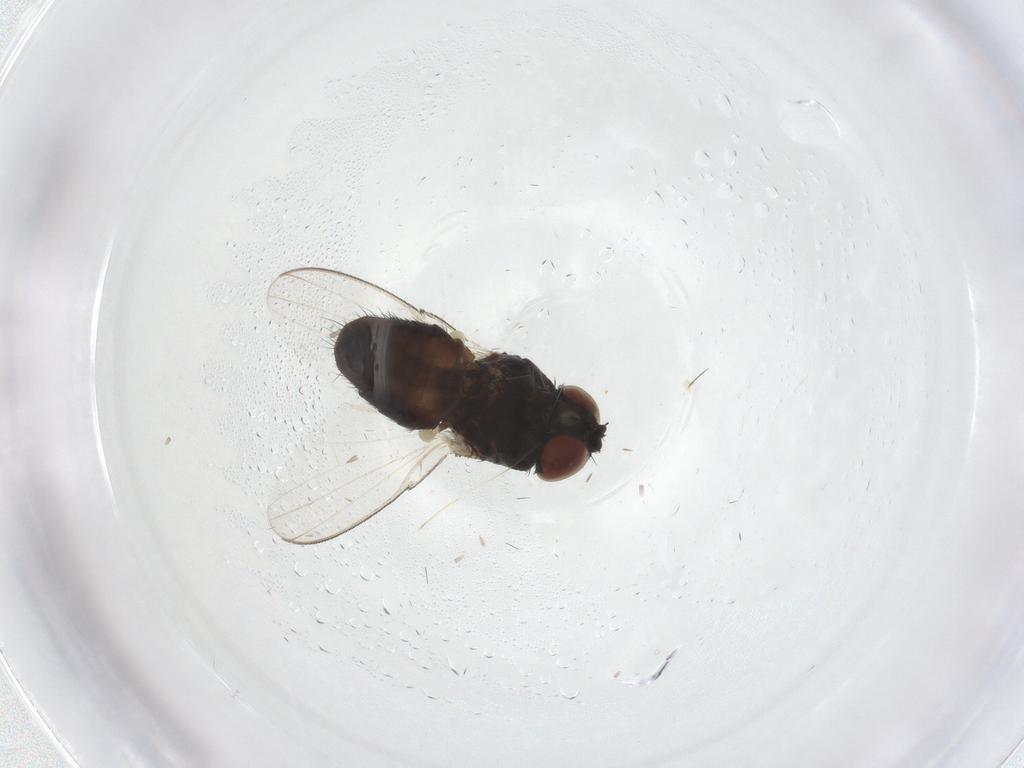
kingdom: Animalia
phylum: Arthropoda
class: Insecta
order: Diptera
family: Milichiidae
